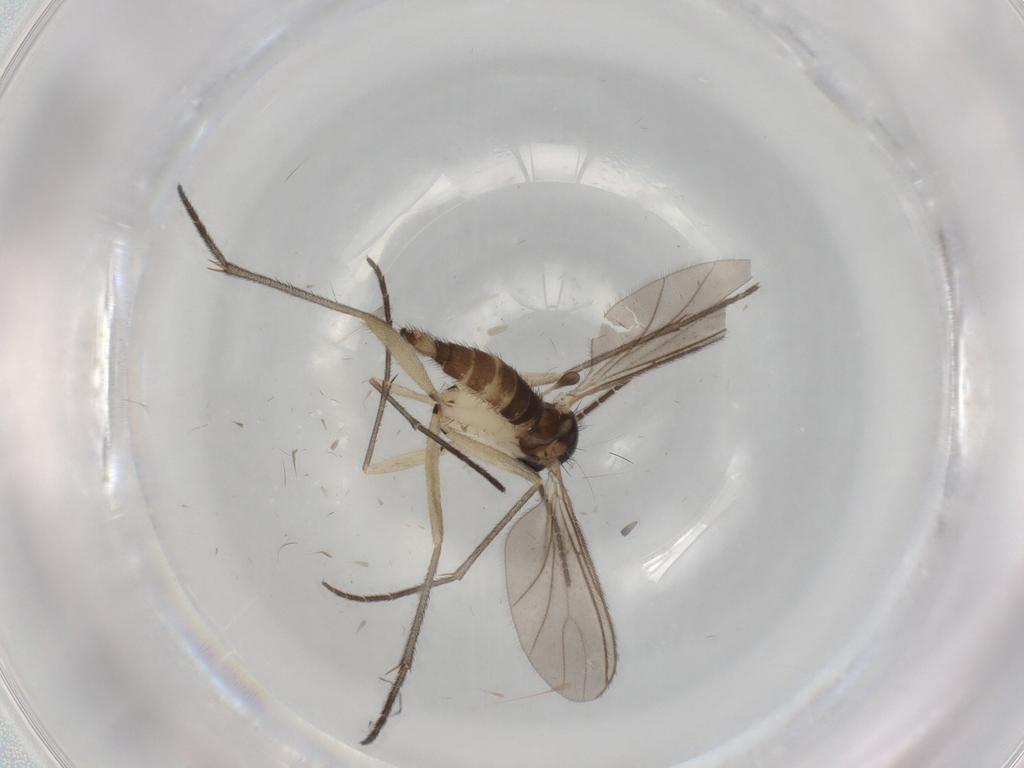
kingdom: Animalia
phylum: Arthropoda
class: Insecta
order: Diptera
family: Sciaridae
